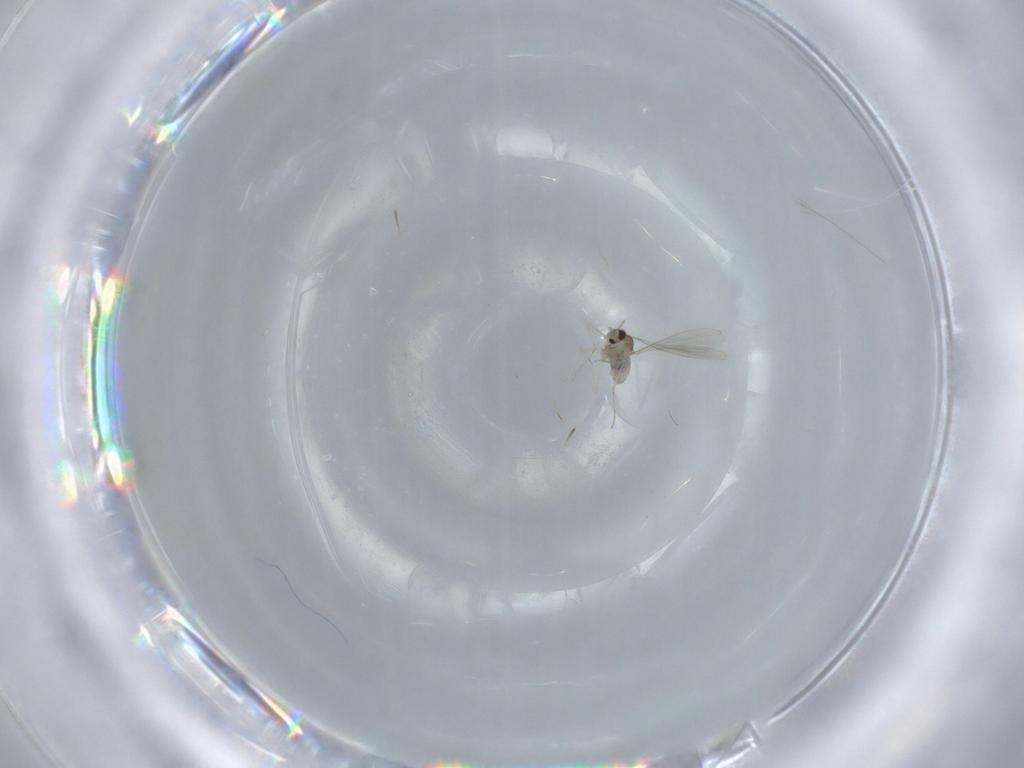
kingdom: Animalia
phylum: Arthropoda
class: Insecta
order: Diptera
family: Cecidomyiidae
